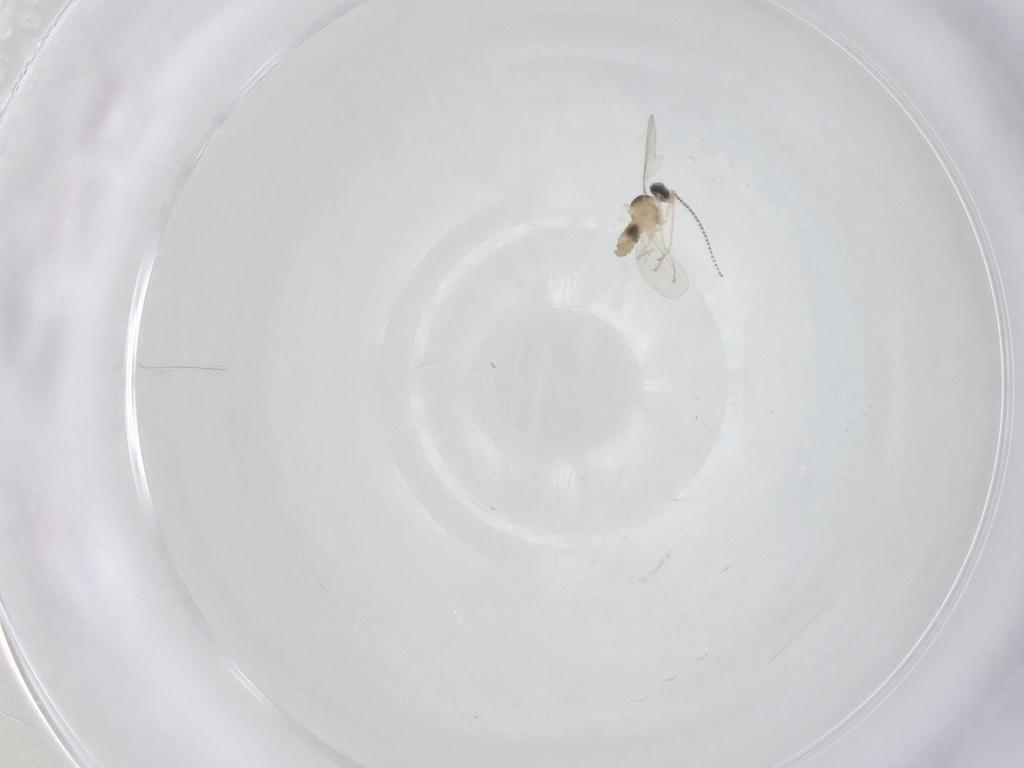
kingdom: Animalia
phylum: Arthropoda
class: Insecta
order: Diptera
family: Cecidomyiidae
